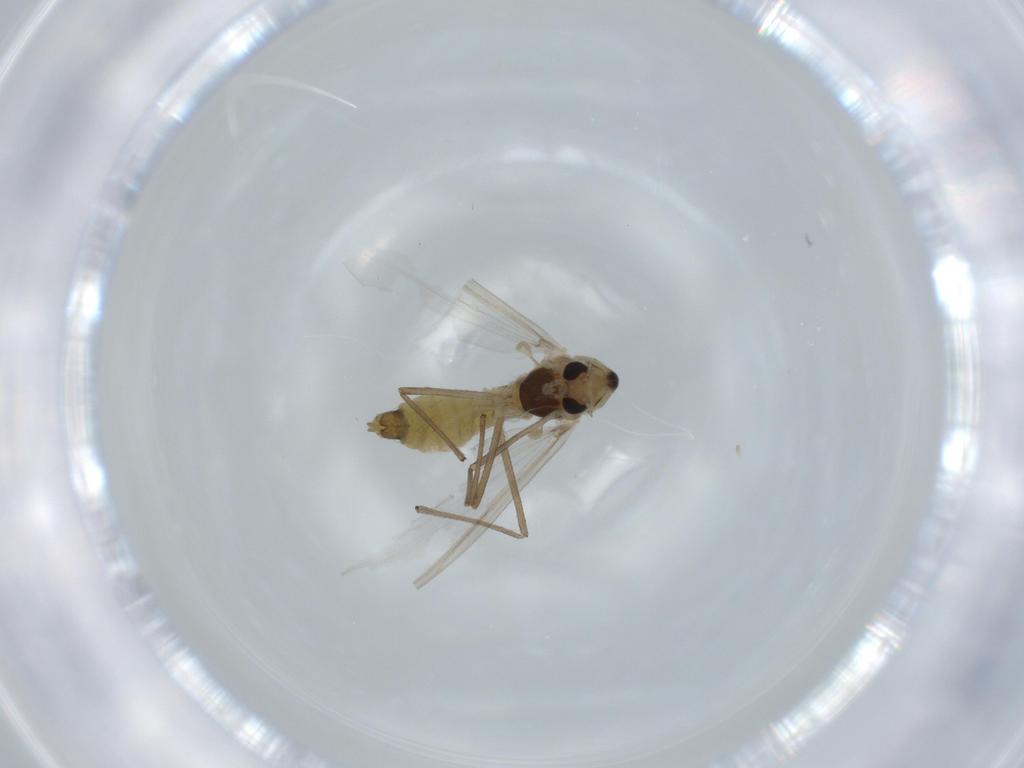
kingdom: Animalia
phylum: Arthropoda
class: Insecta
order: Diptera
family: Chironomidae
